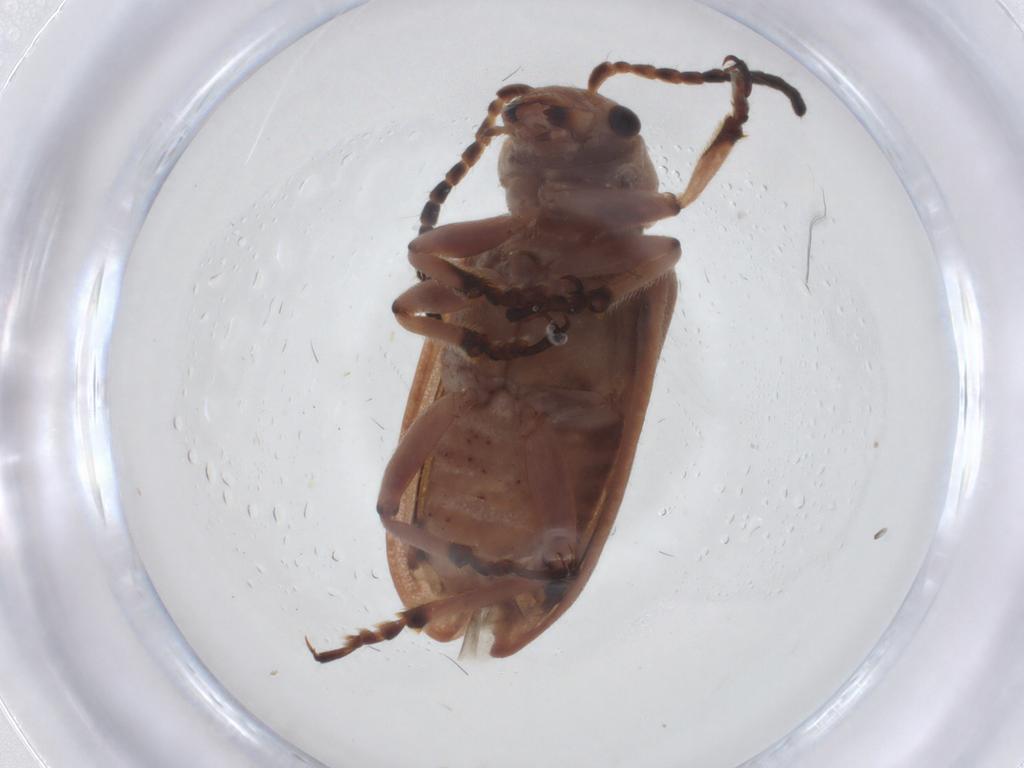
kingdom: Animalia
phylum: Arthropoda
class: Insecta
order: Coleoptera
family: Chrysomelidae
